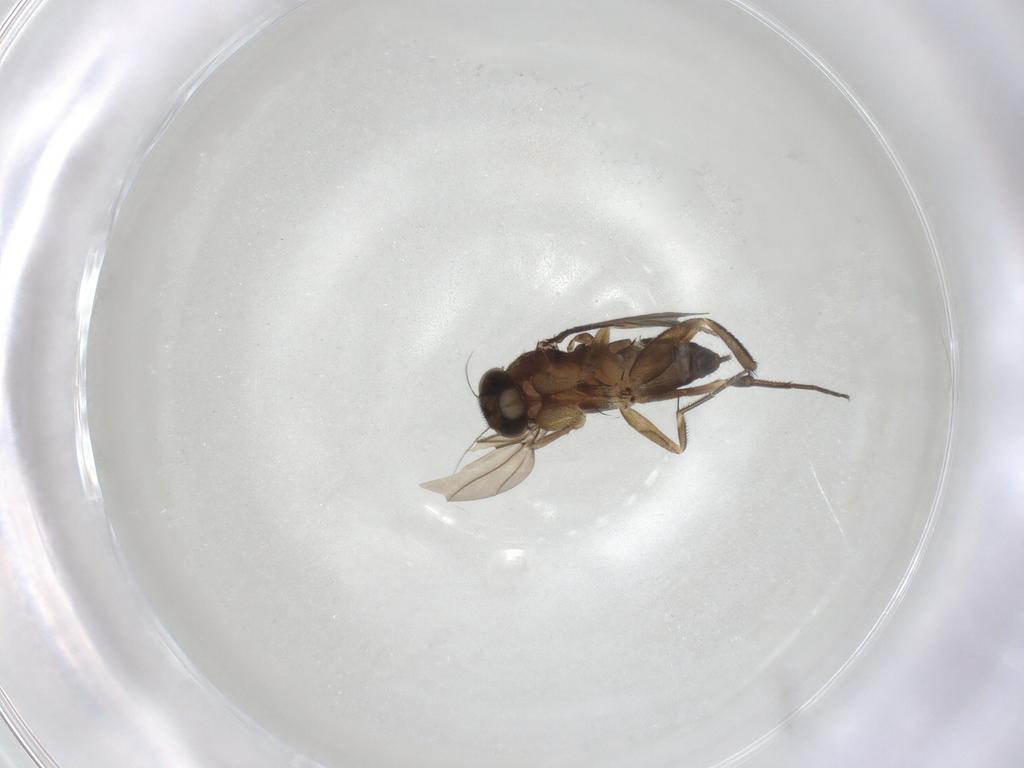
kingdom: Animalia
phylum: Arthropoda
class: Insecta
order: Diptera
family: Phoridae
